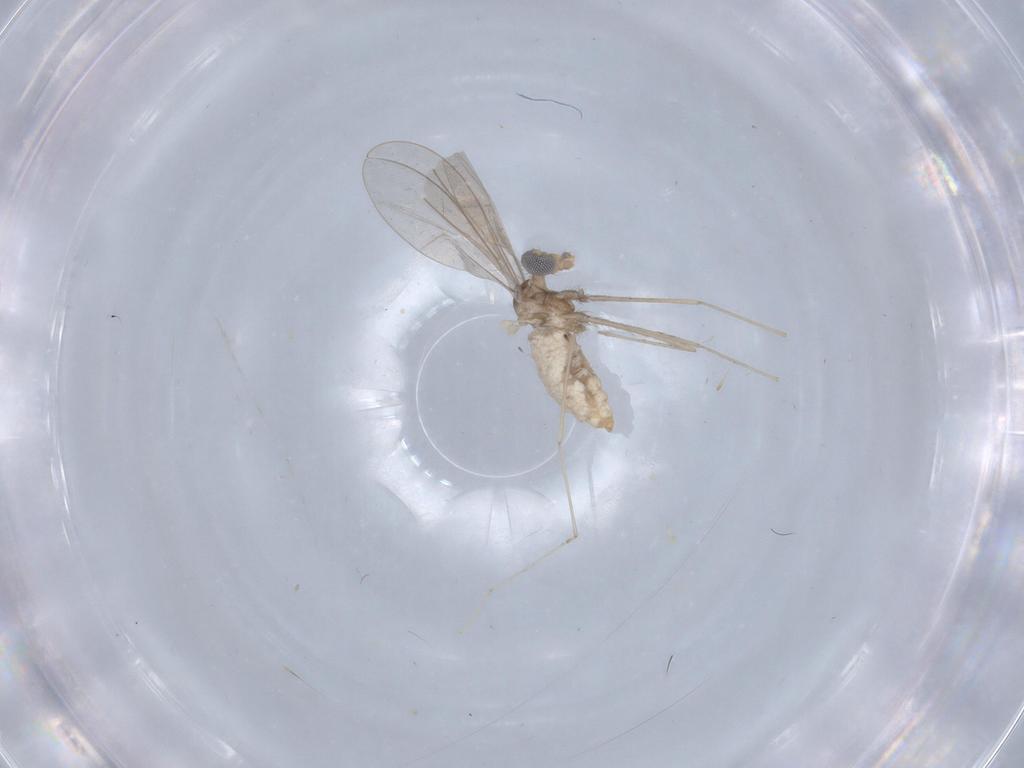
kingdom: Animalia
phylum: Arthropoda
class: Insecta
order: Diptera
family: Cecidomyiidae
